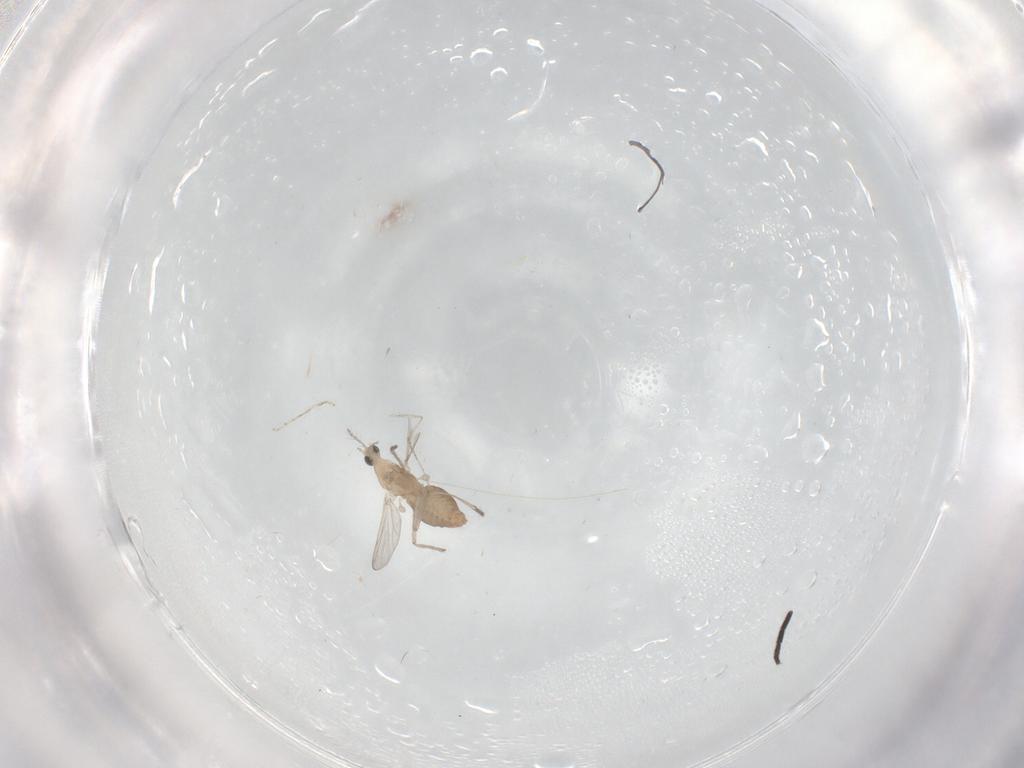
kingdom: Animalia
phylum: Arthropoda
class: Insecta
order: Diptera
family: Chironomidae
